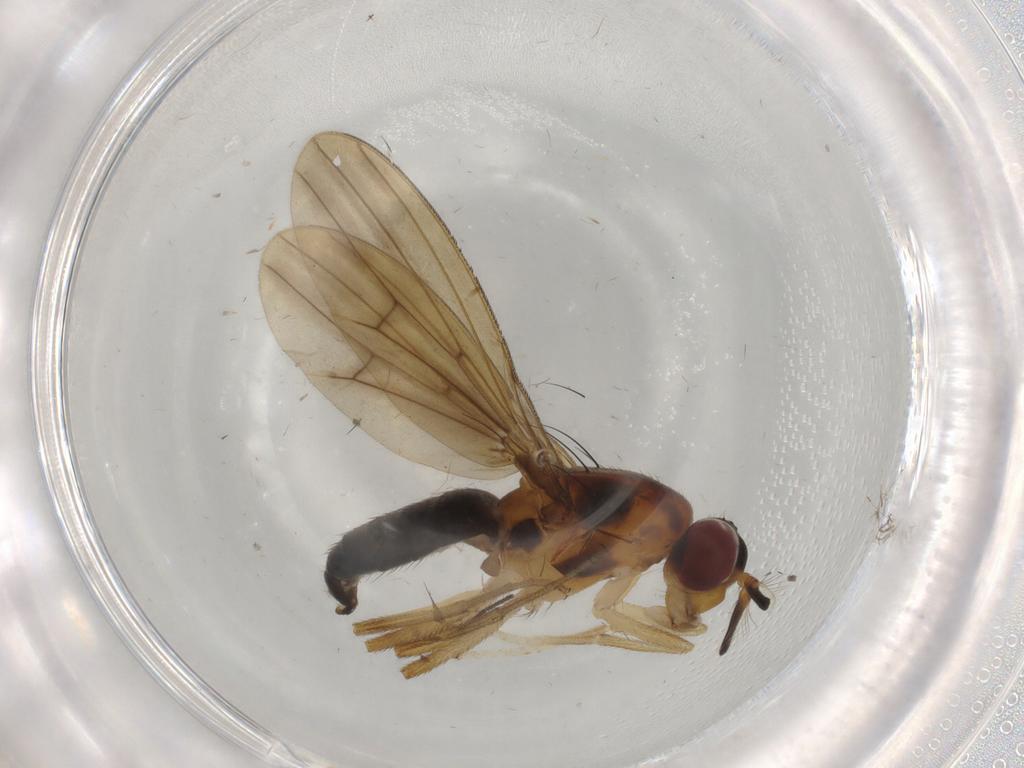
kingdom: Animalia
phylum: Arthropoda
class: Insecta
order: Diptera
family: Lauxaniidae
